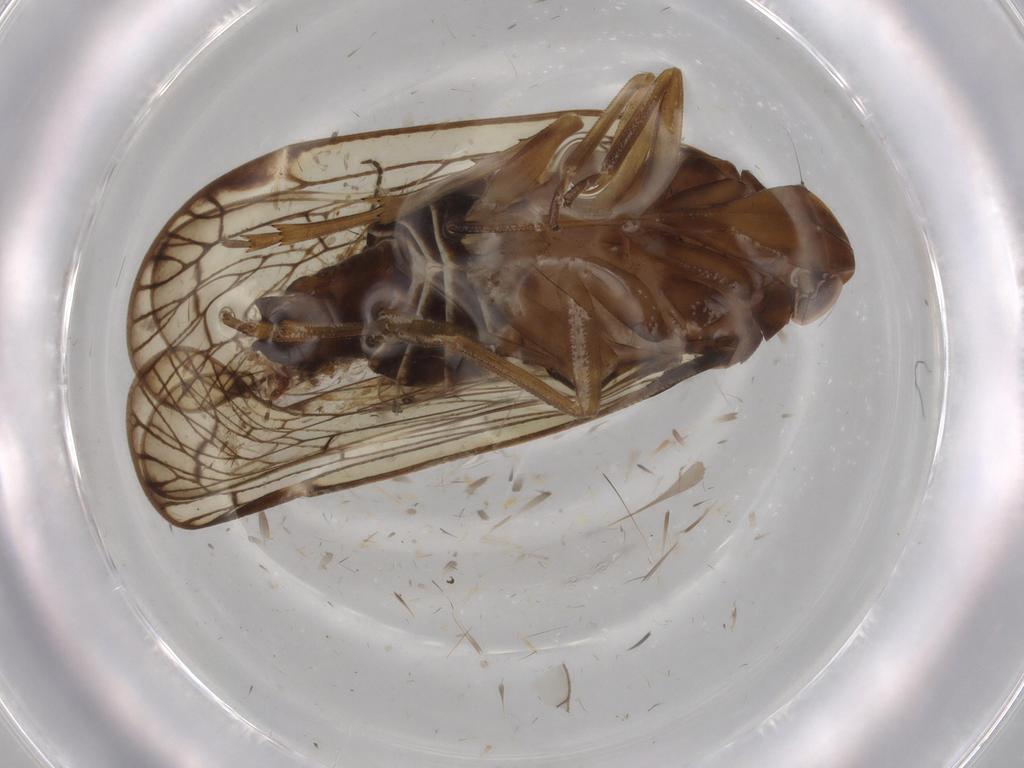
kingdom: Animalia
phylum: Arthropoda
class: Insecta
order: Hemiptera
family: Cixiidae
